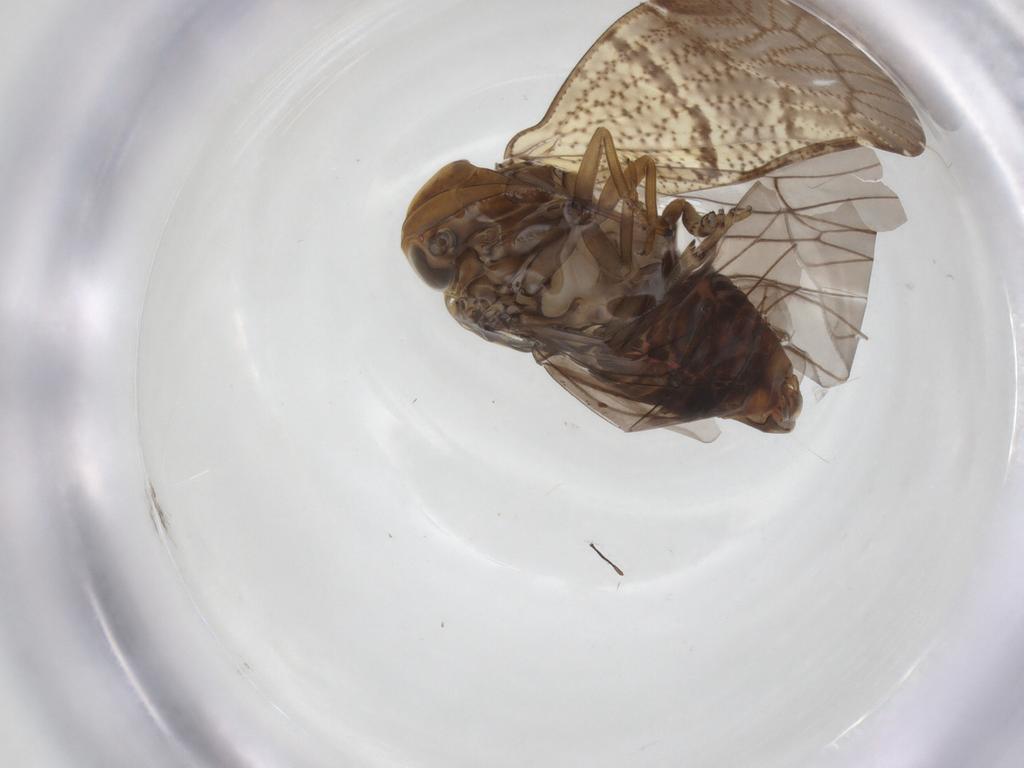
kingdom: Animalia
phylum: Arthropoda
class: Insecta
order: Hemiptera
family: Cixiidae
